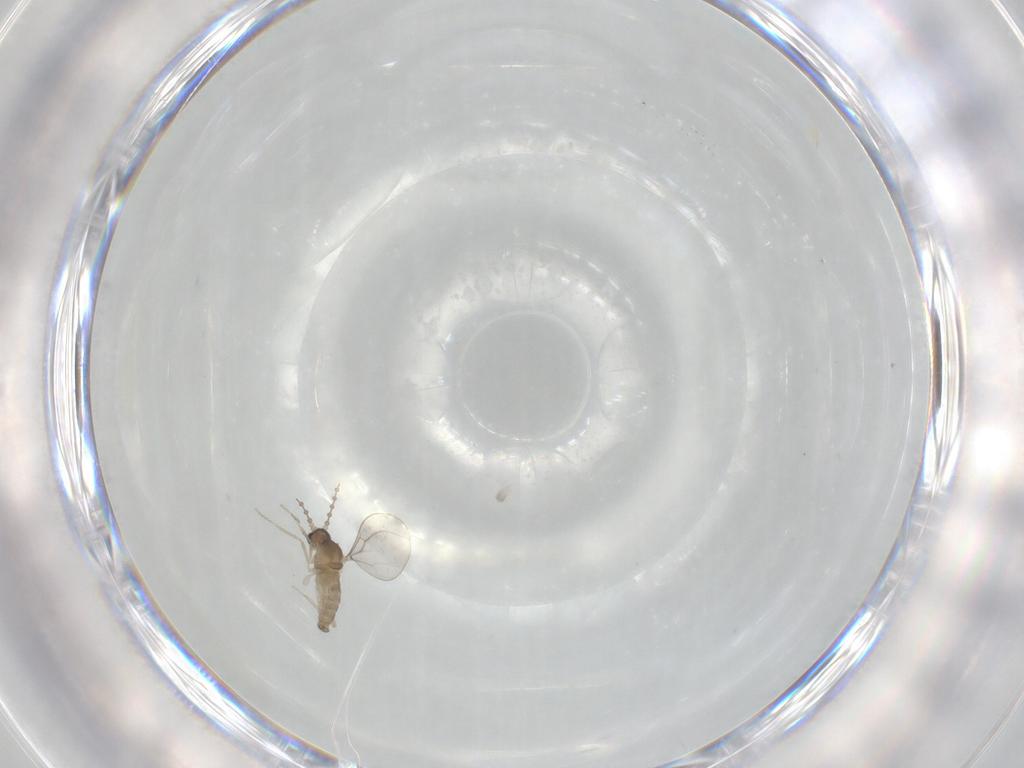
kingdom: Animalia
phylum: Arthropoda
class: Insecta
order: Diptera
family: Cecidomyiidae
